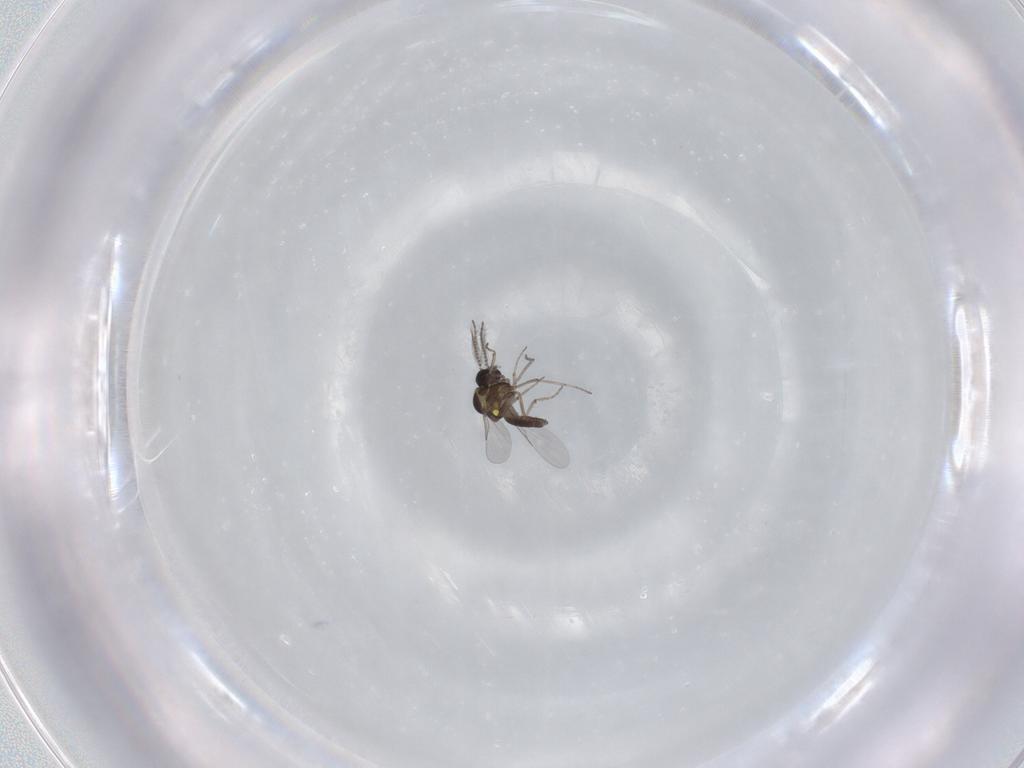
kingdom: Animalia
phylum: Arthropoda
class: Insecta
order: Diptera
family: Ceratopogonidae
